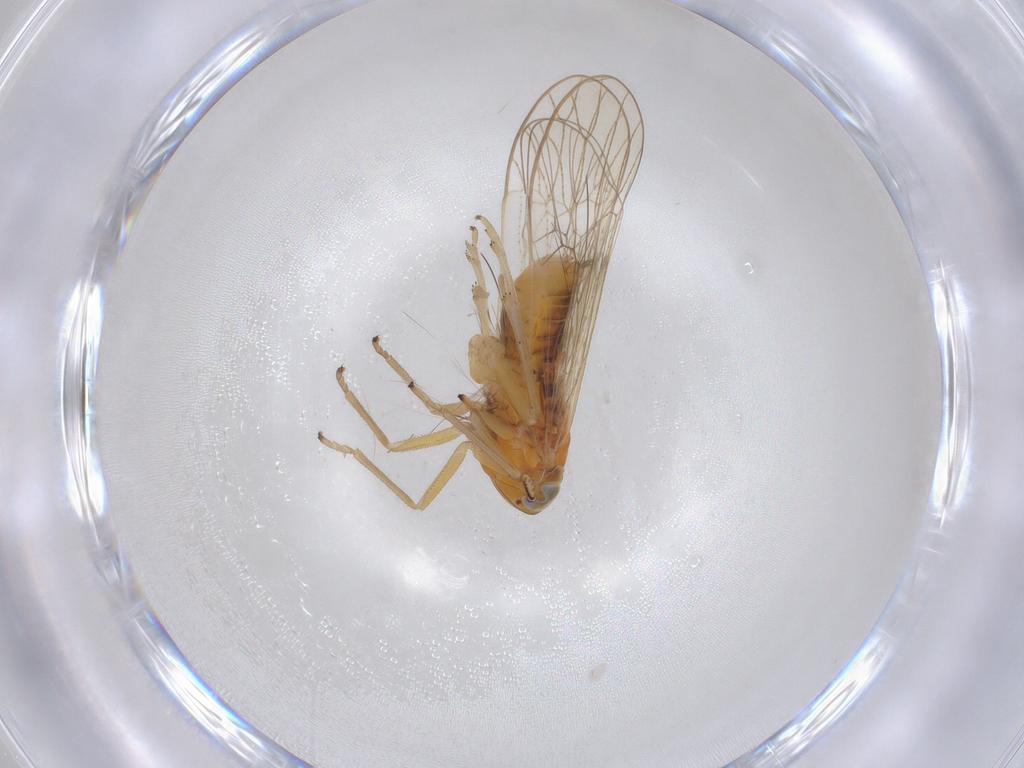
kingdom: Animalia
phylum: Arthropoda
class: Insecta
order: Hemiptera
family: Delphacidae
